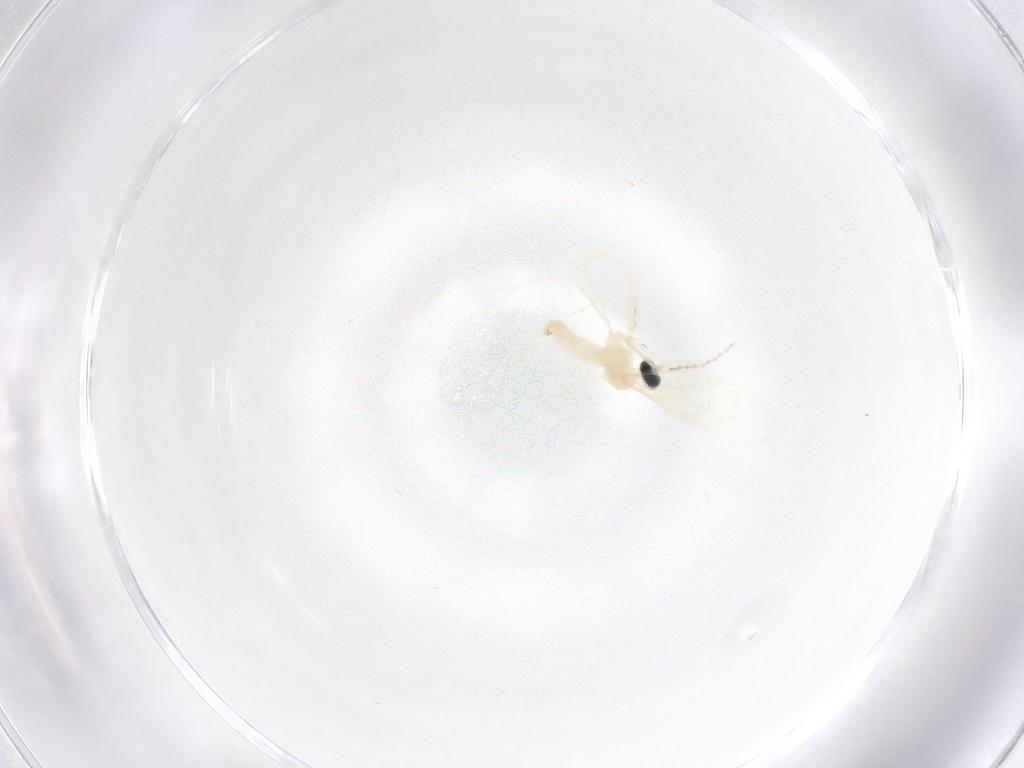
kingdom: Animalia
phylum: Arthropoda
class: Insecta
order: Diptera
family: Cecidomyiidae
